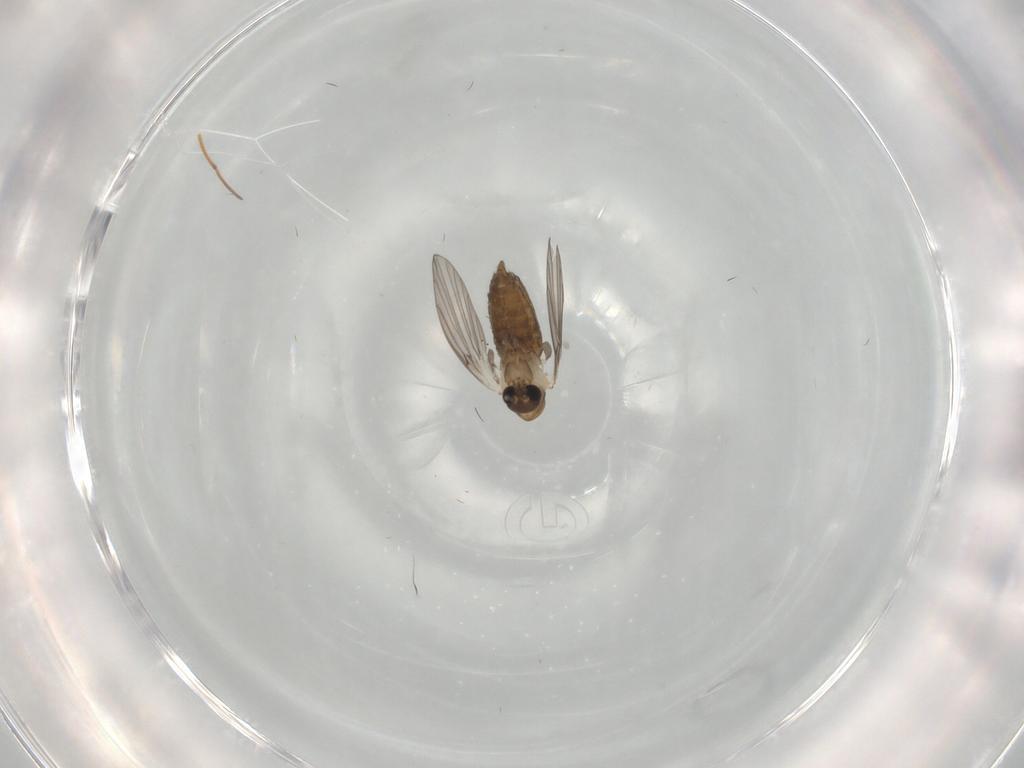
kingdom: Animalia
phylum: Arthropoda
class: Insecta
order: Diptera
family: Psychodidae
